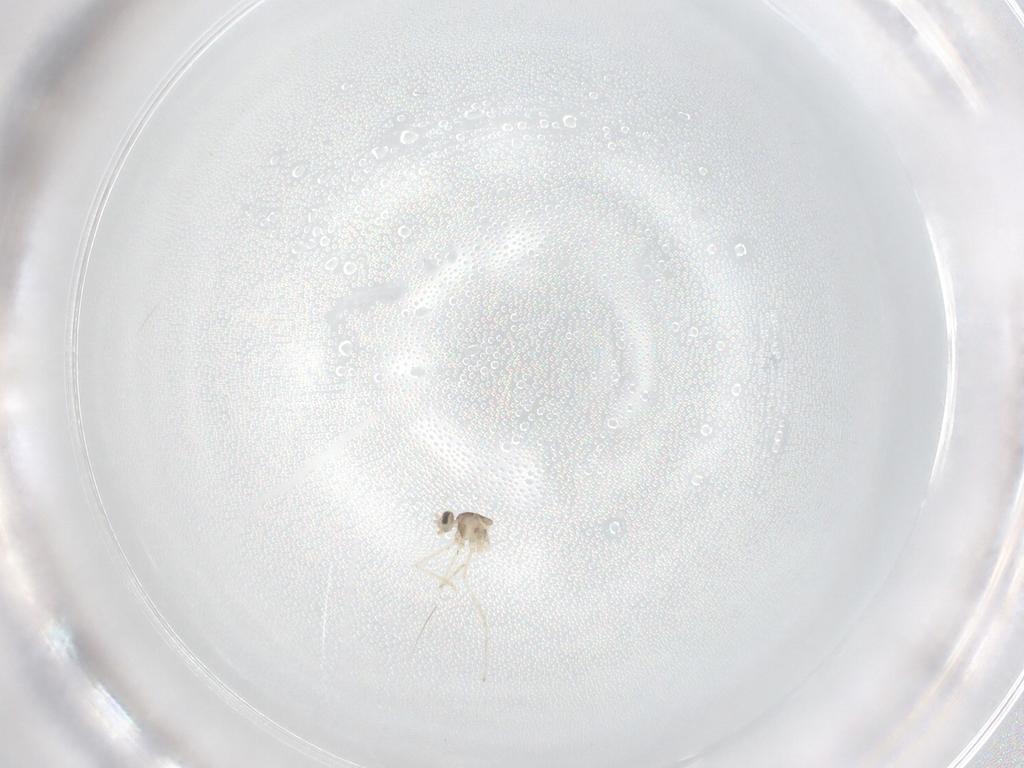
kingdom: Animalia
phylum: Arthropoda
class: Insecta
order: Diptera
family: Cecidomyiidae
